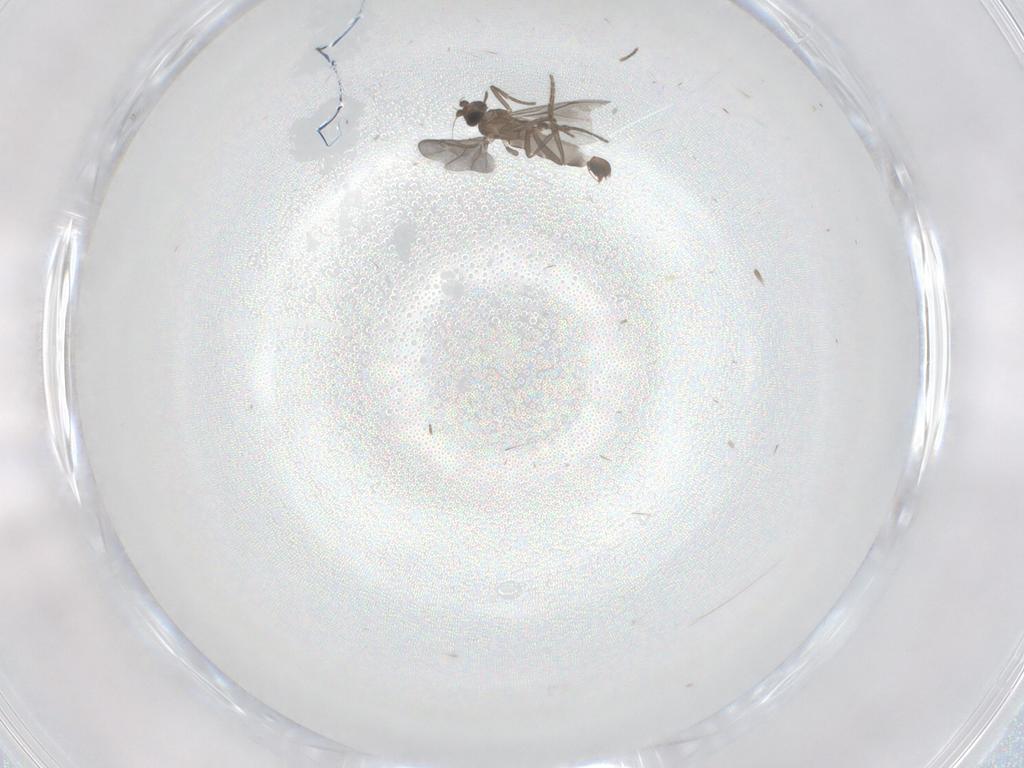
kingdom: Animalia
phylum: Arthropoda
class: Insecta
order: Diptera
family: Phoridae
